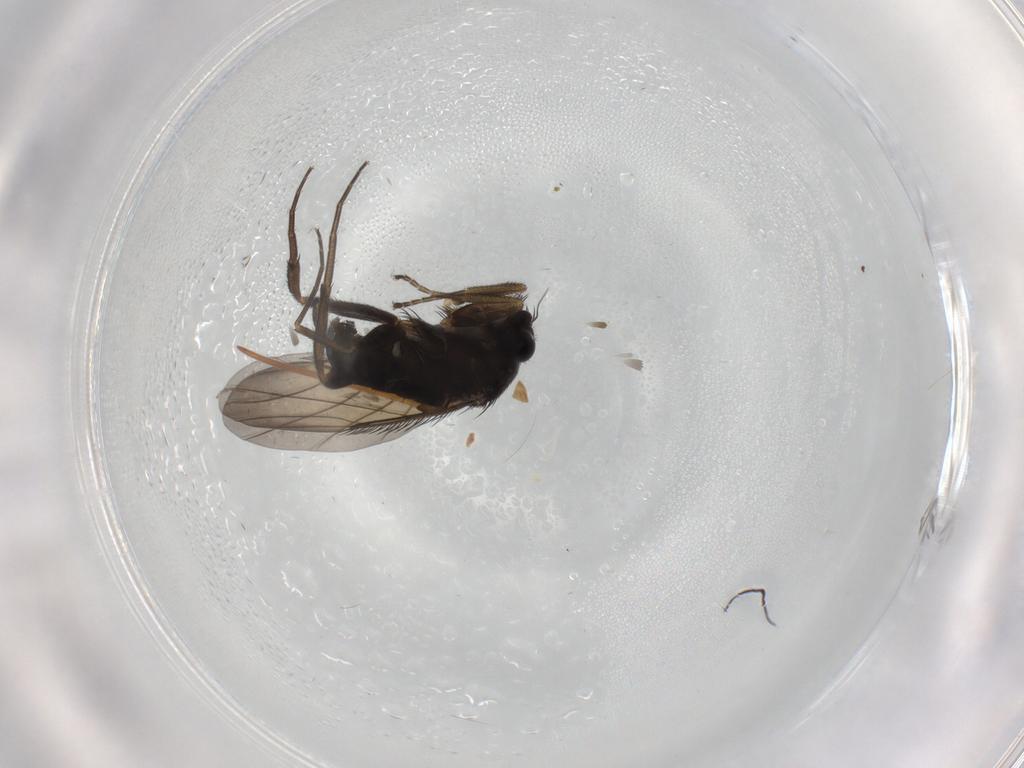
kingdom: Animalia
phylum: Arthropoda
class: Insecta
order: Diptera
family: Phoridae
